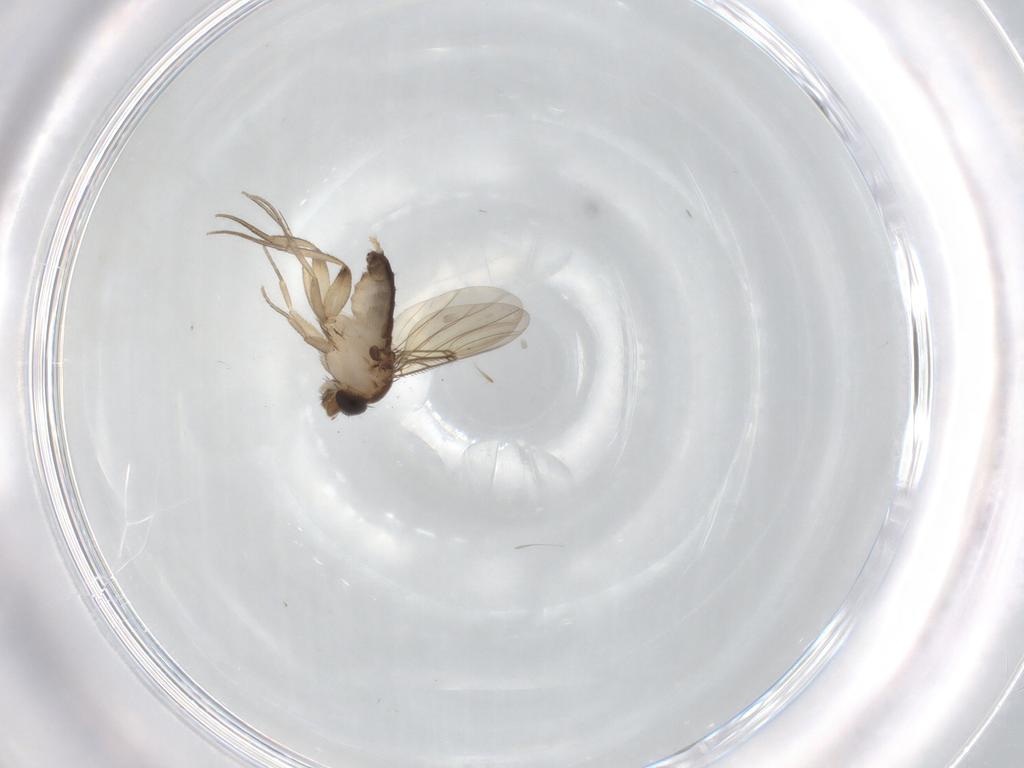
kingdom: Animalia
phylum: Arthropoda
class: Insecta
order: Diptera
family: Phoridae
